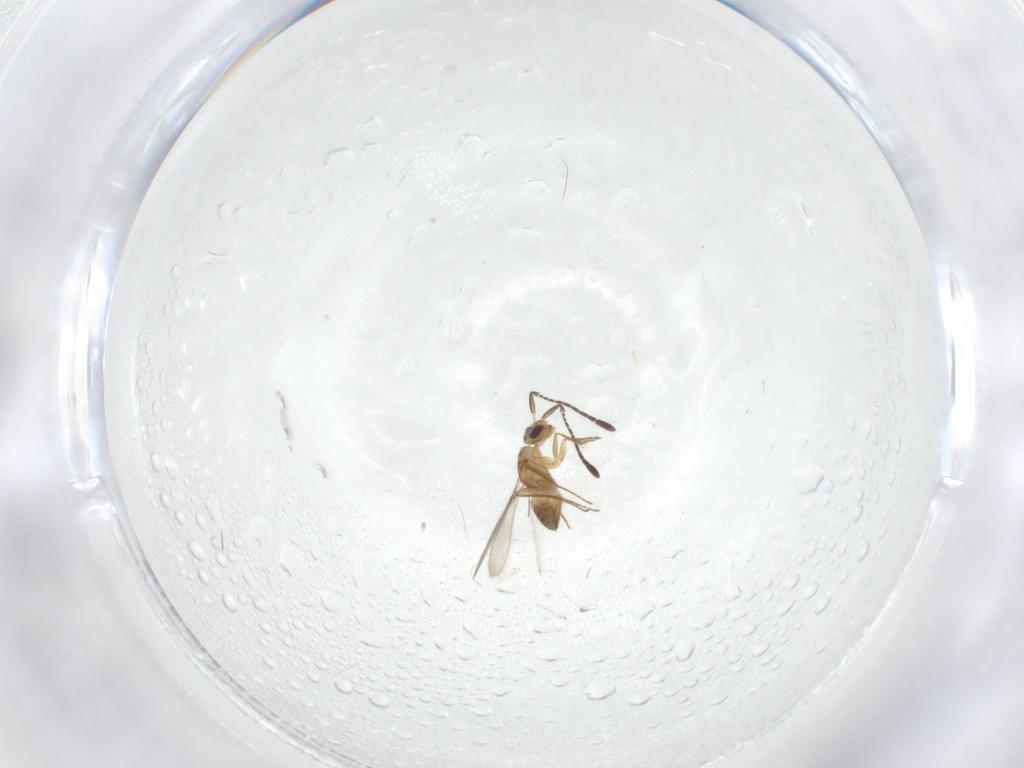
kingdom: Animalia
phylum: Arthropoda
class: Insecta
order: Hymenoptera
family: Mymaridae
